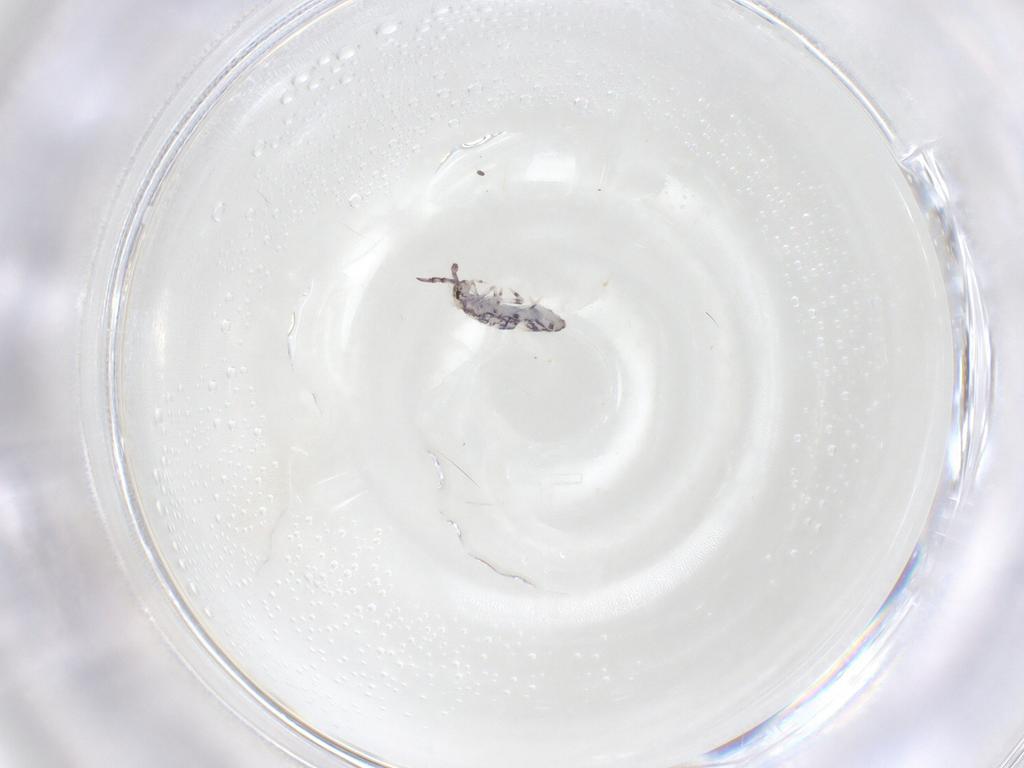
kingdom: Animalia
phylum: Arthropoda
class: Collembola
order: Entomobryomorpha
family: Entomobryidae
